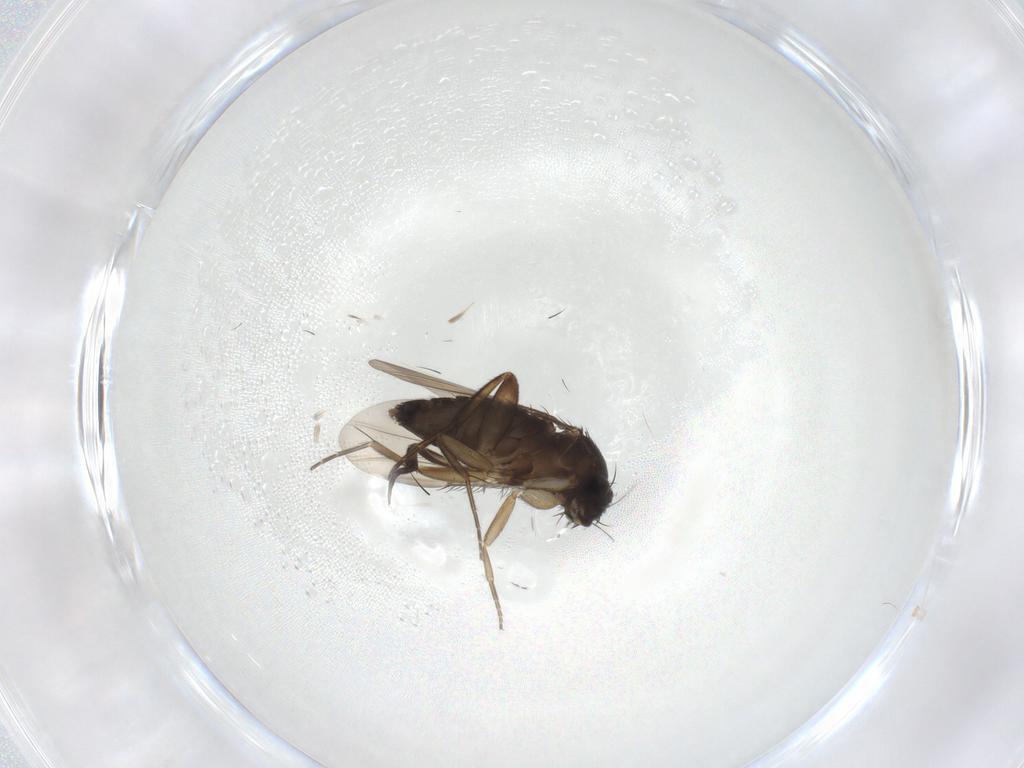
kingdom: Animalia
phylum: Arthropoda
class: Insecta
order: Diptera
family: Phoridae
